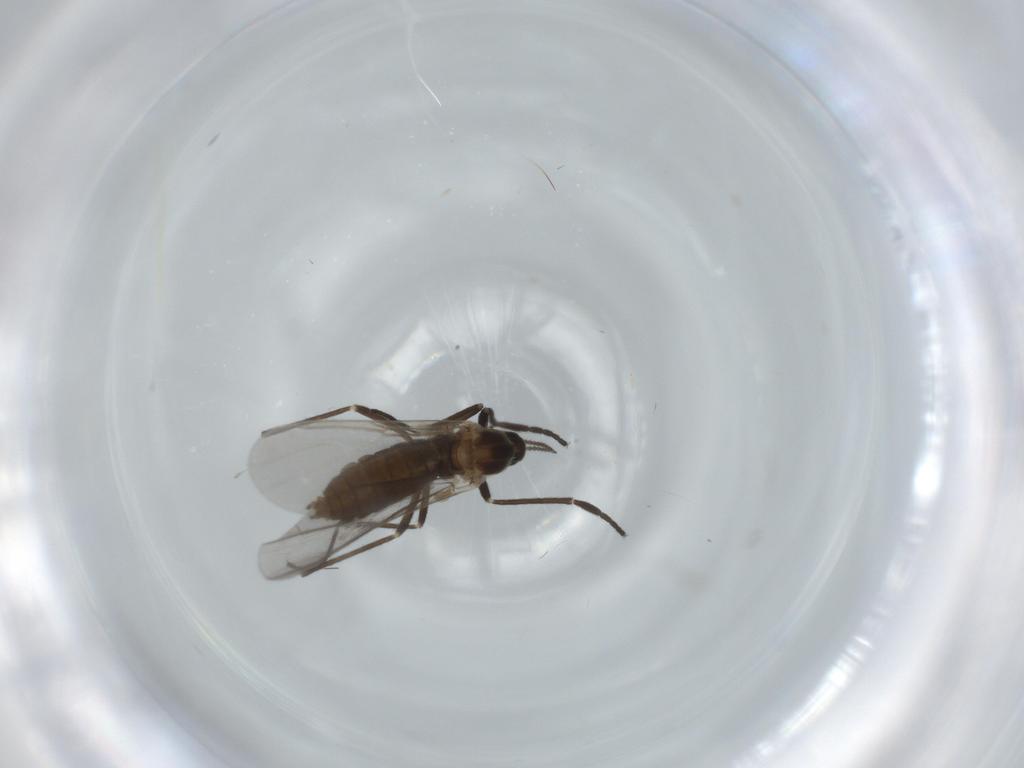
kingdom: Animalia
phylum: Arthropoda
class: Insecta
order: Diptera
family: Cecidomyiidae
